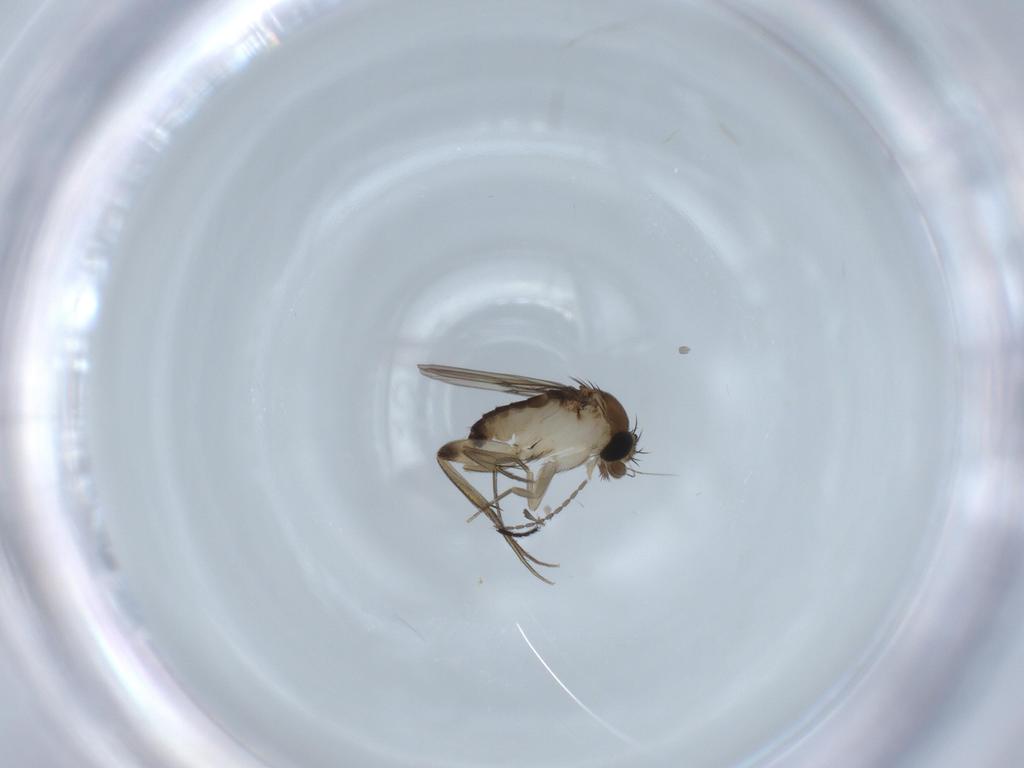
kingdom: Animalia
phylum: Arthropoda
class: Insecta
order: Diptera
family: Phoridae
